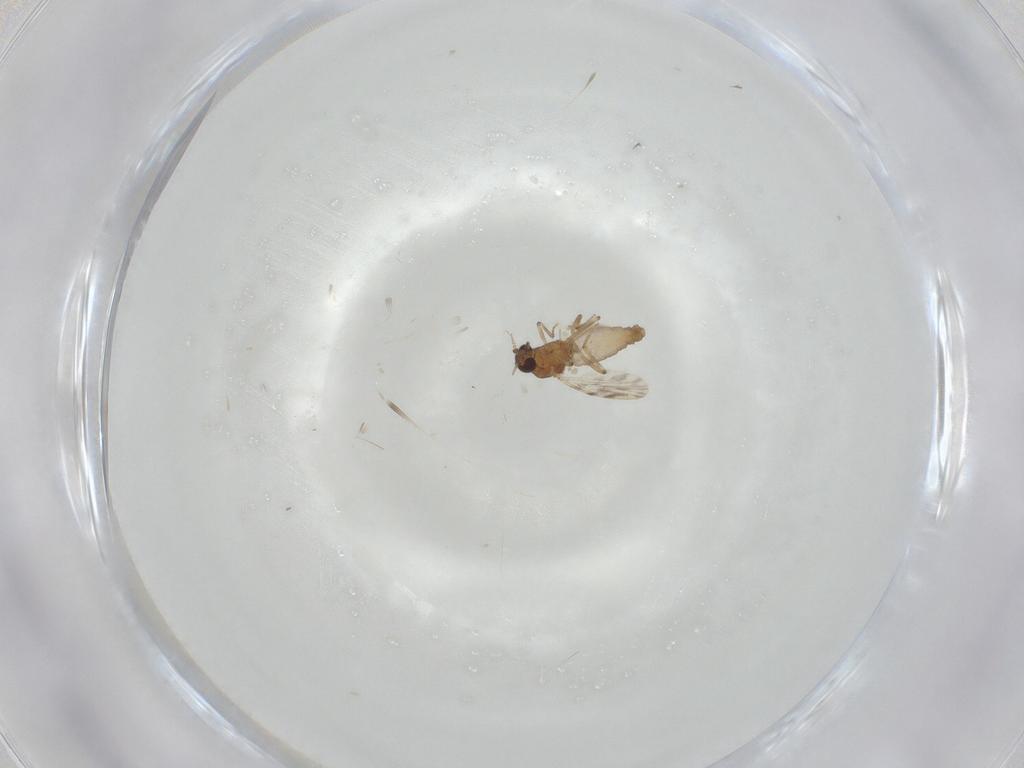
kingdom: Animalia
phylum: Arthropoda
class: Insecta
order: Diptera
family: Ceratopogonidae
